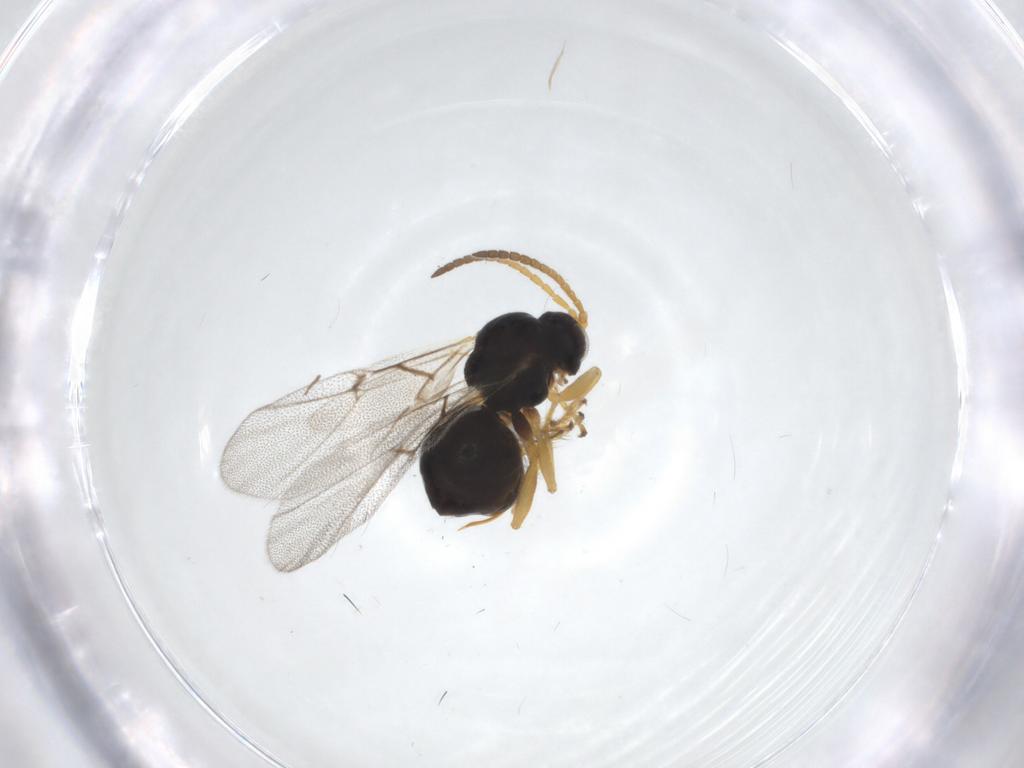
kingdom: Animalia
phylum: Arthropoda
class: Insecta
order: Hymenoptera
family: Cynipidae
